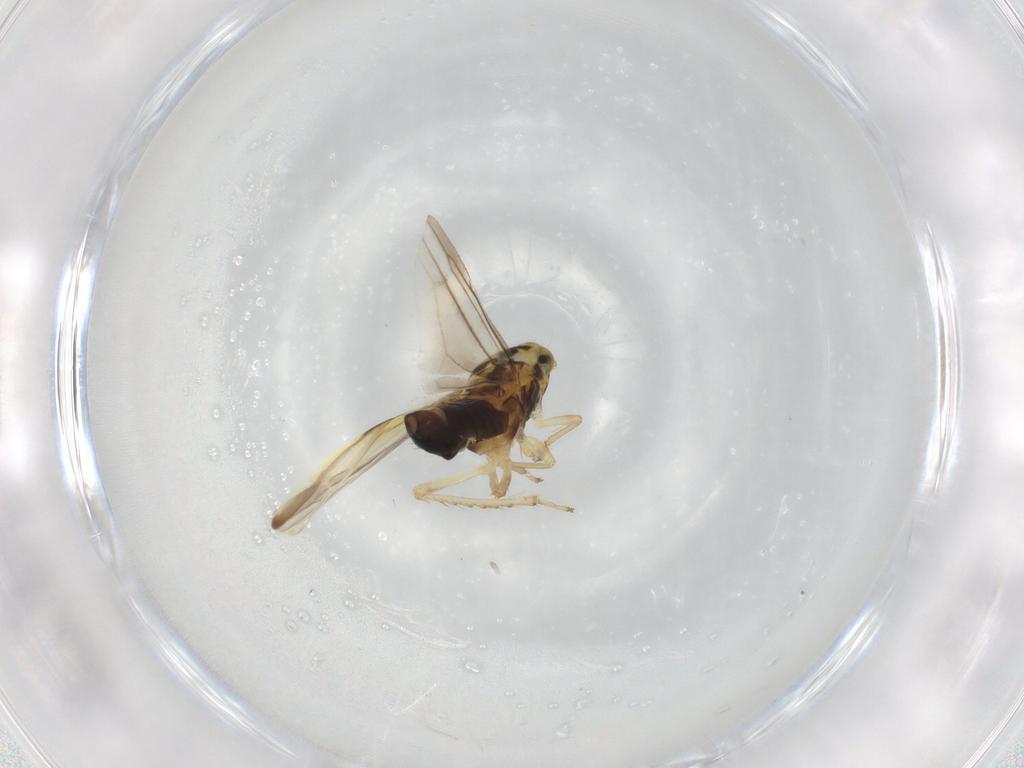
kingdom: Animalia
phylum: Arthropoda
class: Insecta
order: Hemiptera
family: Cicadellidae
